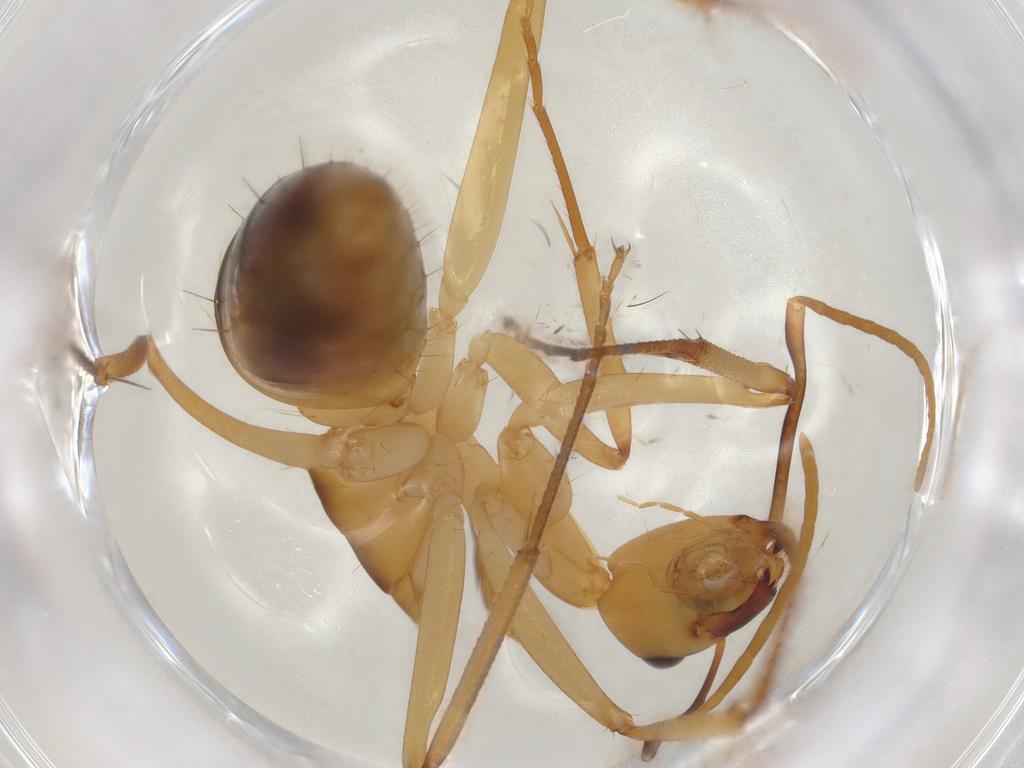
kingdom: Animalia
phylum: Arthropoda
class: Insecta
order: Hymenoptera
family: Formicidae
